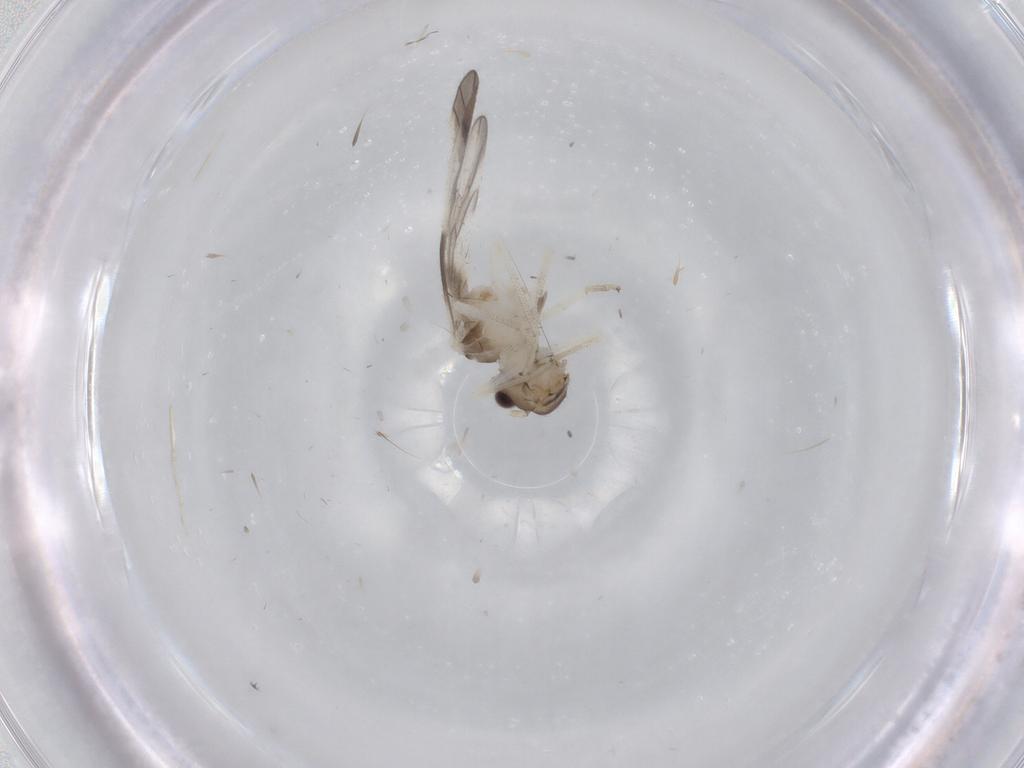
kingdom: Animalia
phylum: Arthropoda
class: Insecta
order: Psocodea
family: Caeciliusidae
